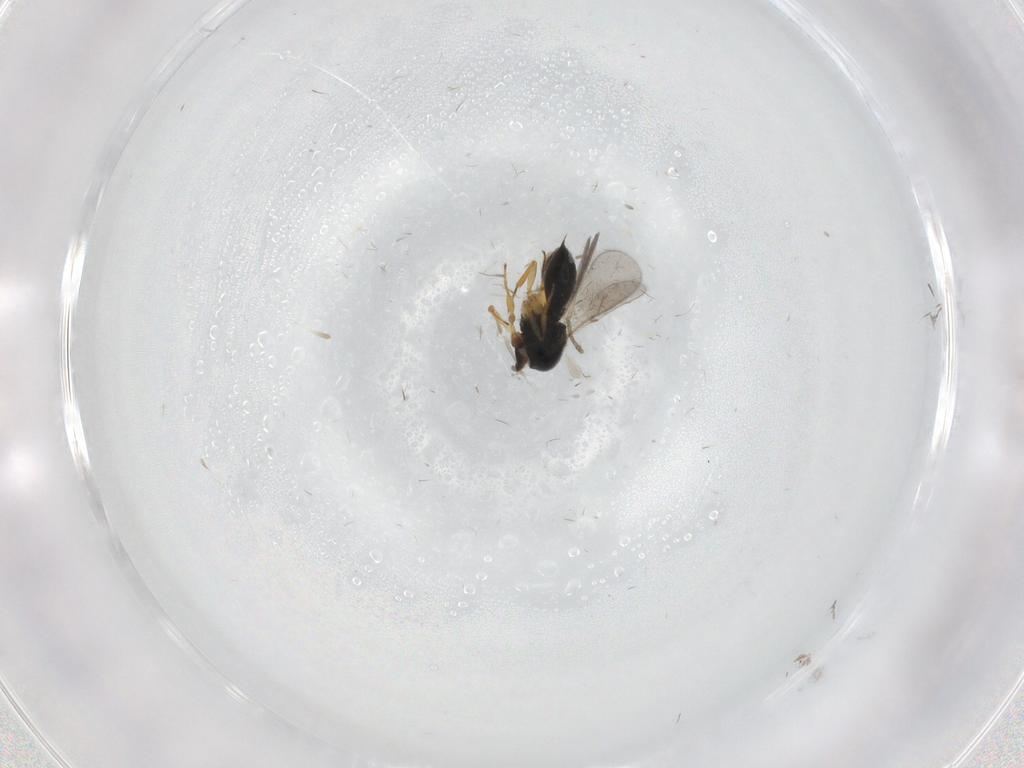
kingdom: Animalia
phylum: Arthropoda
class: Insecta
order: Hymenoptera
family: Scelionidae
